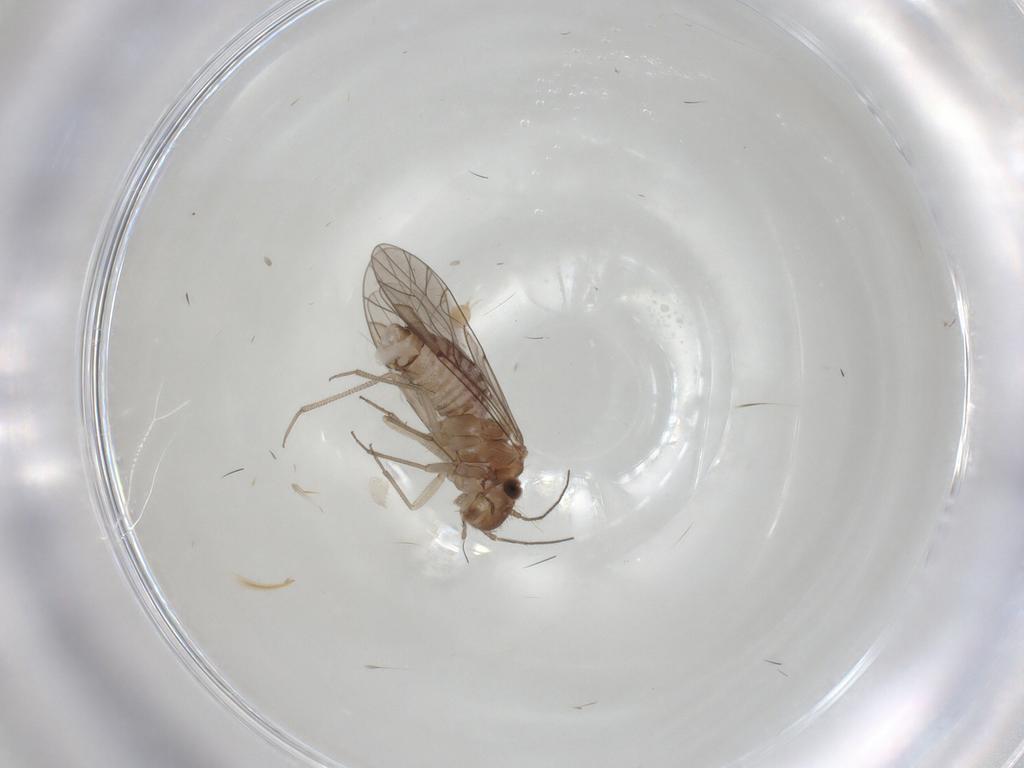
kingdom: Animalia
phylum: Arthropoda
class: Insecta
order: Psocodea
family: Lachesillidae
